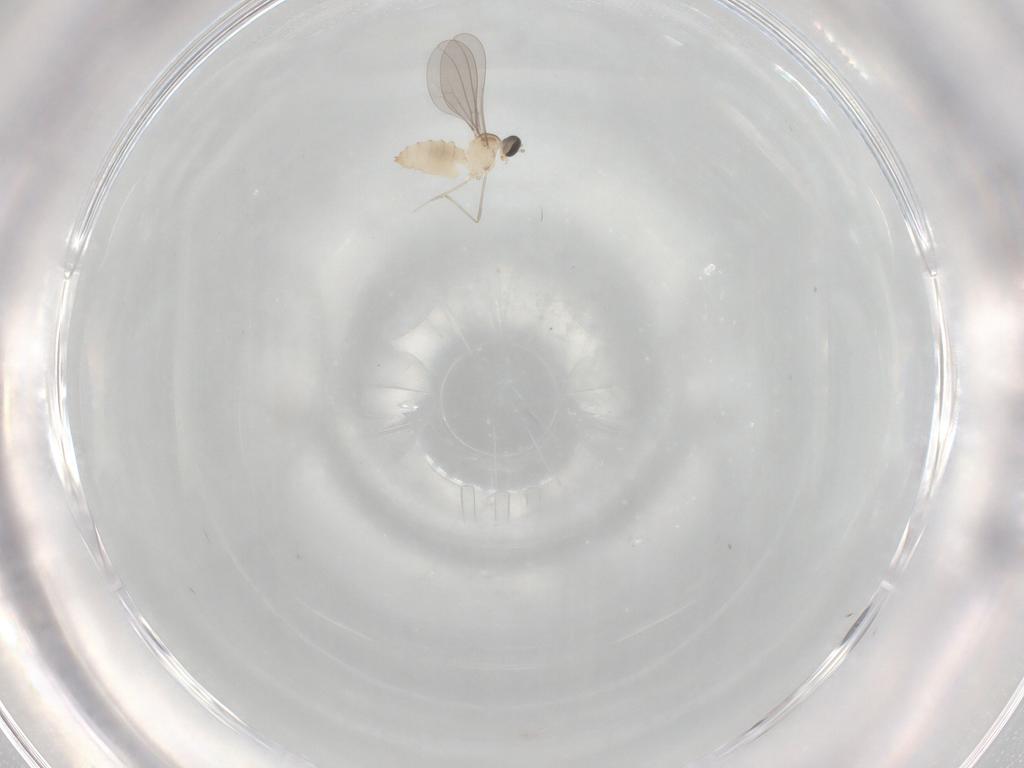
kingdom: Animalia
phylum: Arthropoda
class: Insecta
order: Diptera
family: Cecidomyiidae
